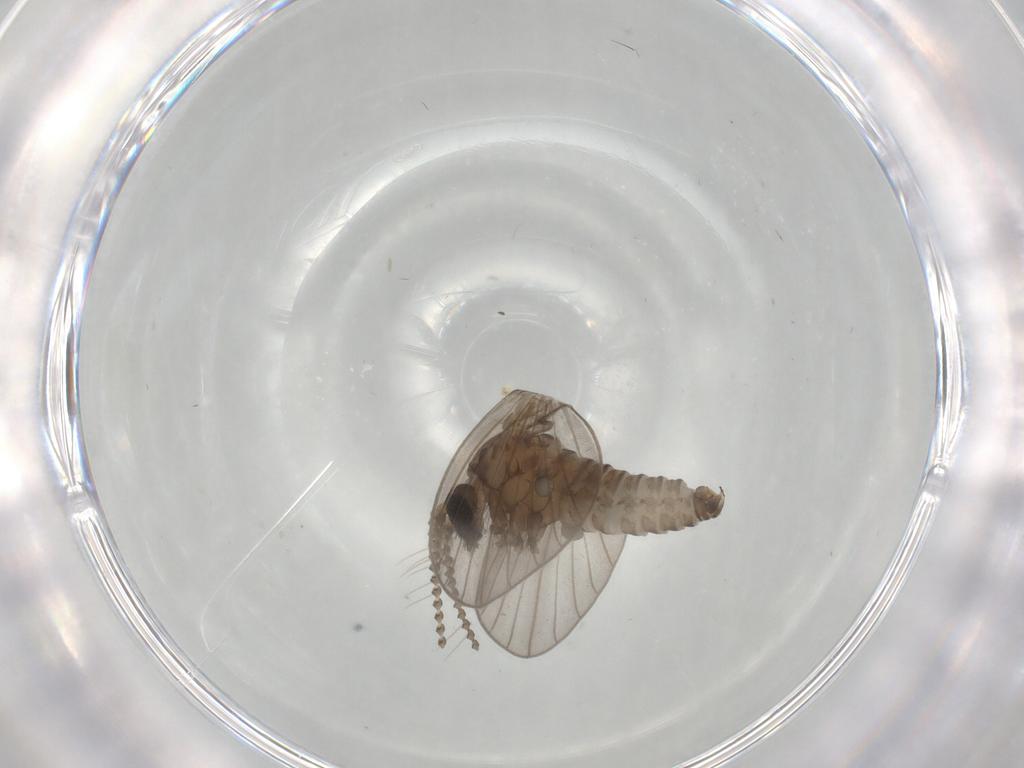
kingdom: Animalia
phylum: Arthropoda
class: Insecta
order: Diptera
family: Psychodidae
